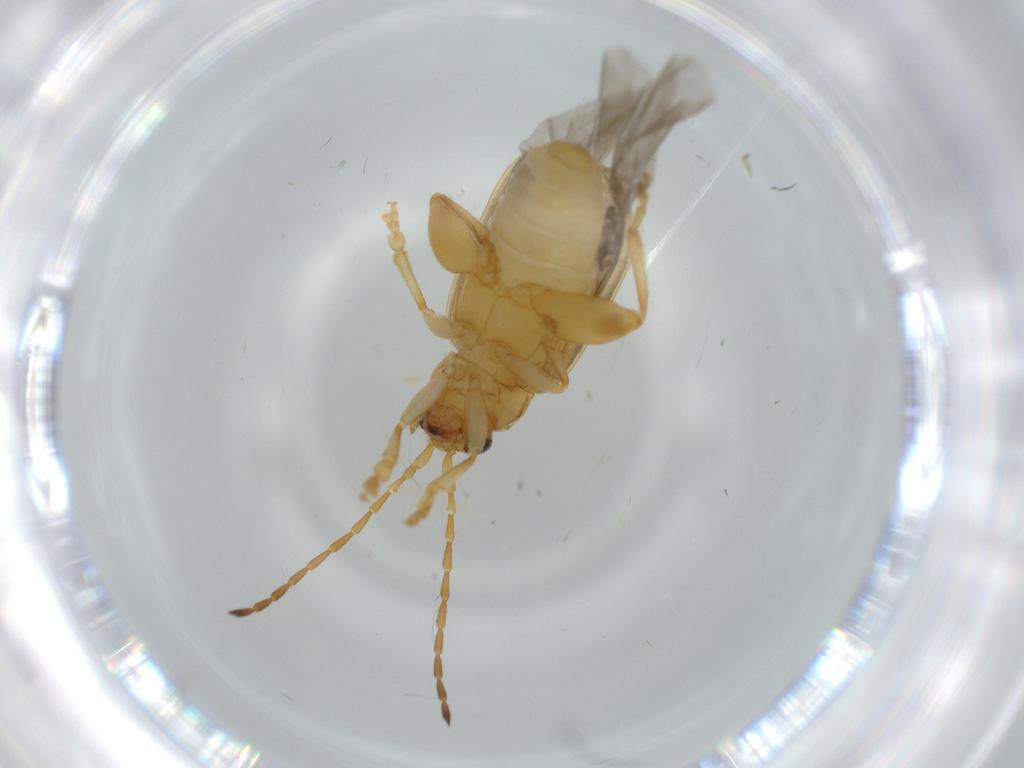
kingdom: Animalia
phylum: Arthropoda
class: Insecta
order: Coleoptera
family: Chrysomelidae
